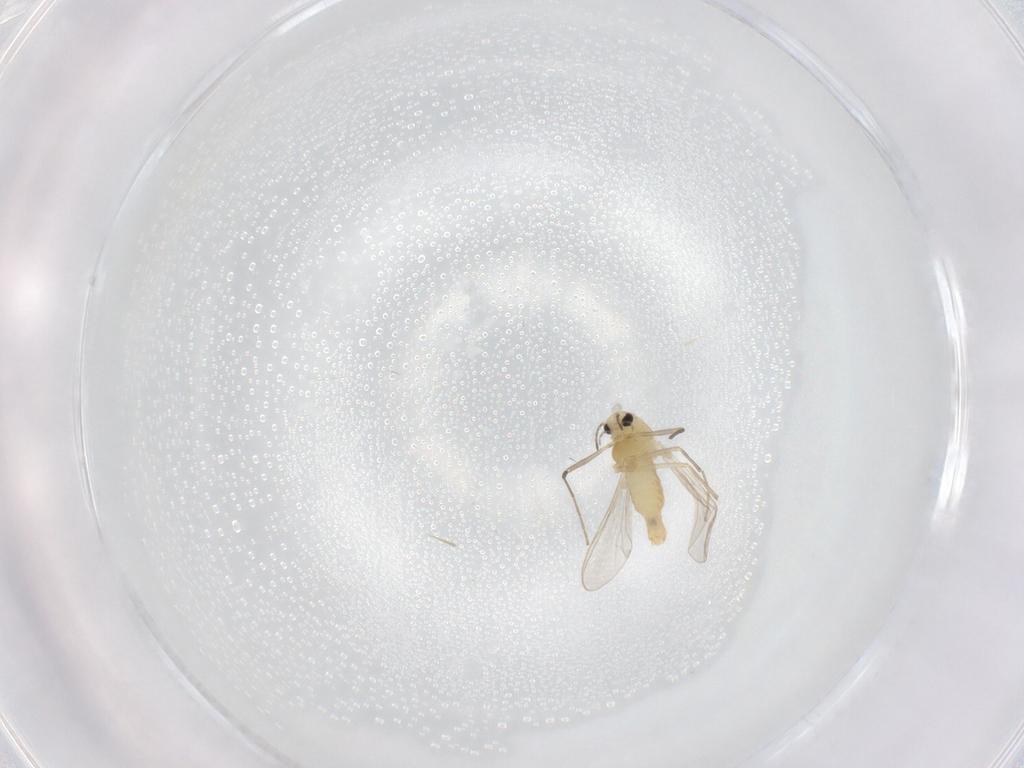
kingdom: Animalia
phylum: Arthropoda
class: Insecta
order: Diptera
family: Chironomidae
